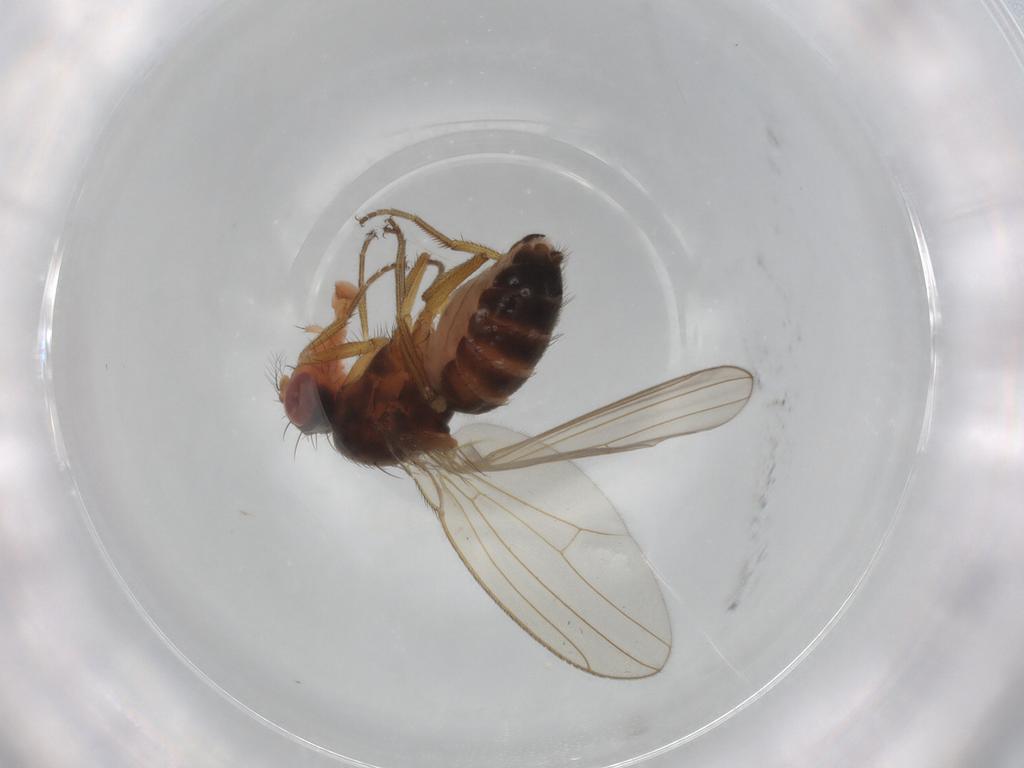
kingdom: Animalia
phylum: Arthropoda
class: Insecta
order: Diptera
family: Drosophilidae
